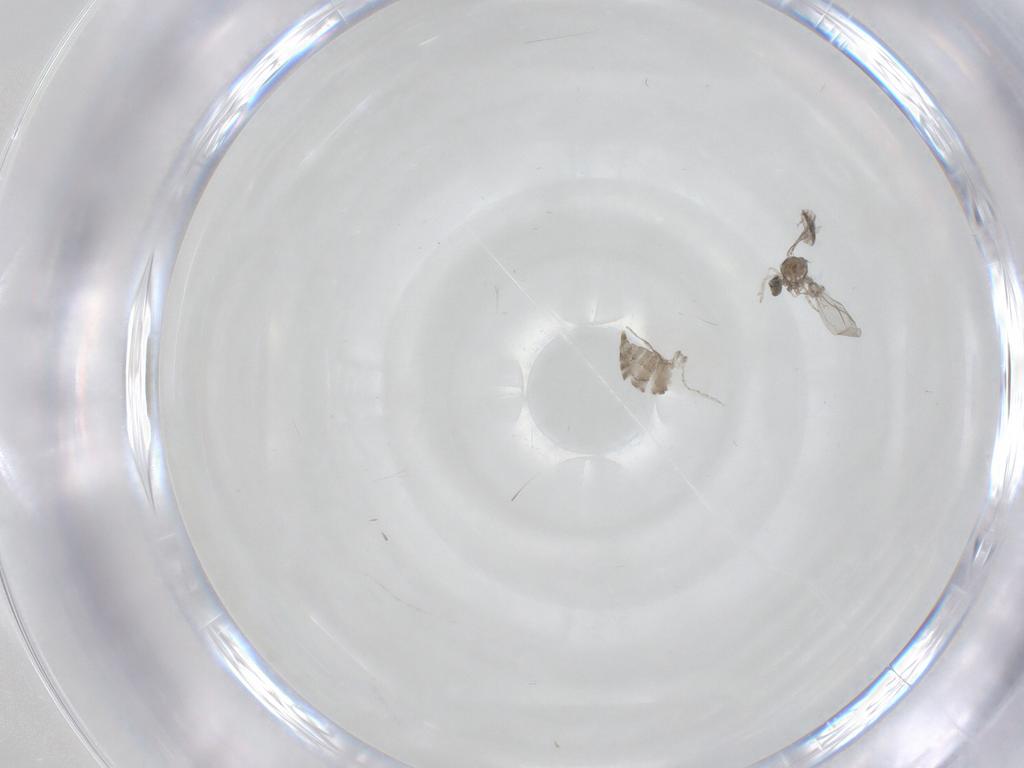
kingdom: Animalia
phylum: Arthropoda
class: Insecta
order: Diptera
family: Cecidomyiidae
